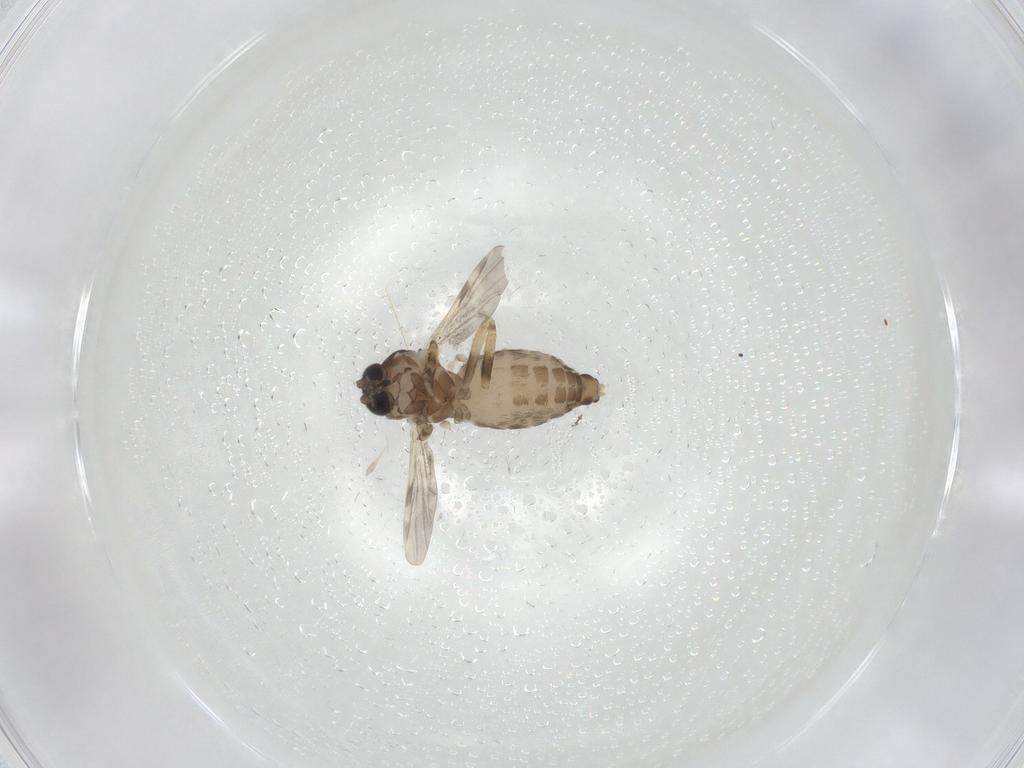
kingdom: Animalia
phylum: Arthropoda
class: Insecta
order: Diptera
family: Ceratopogonidae
